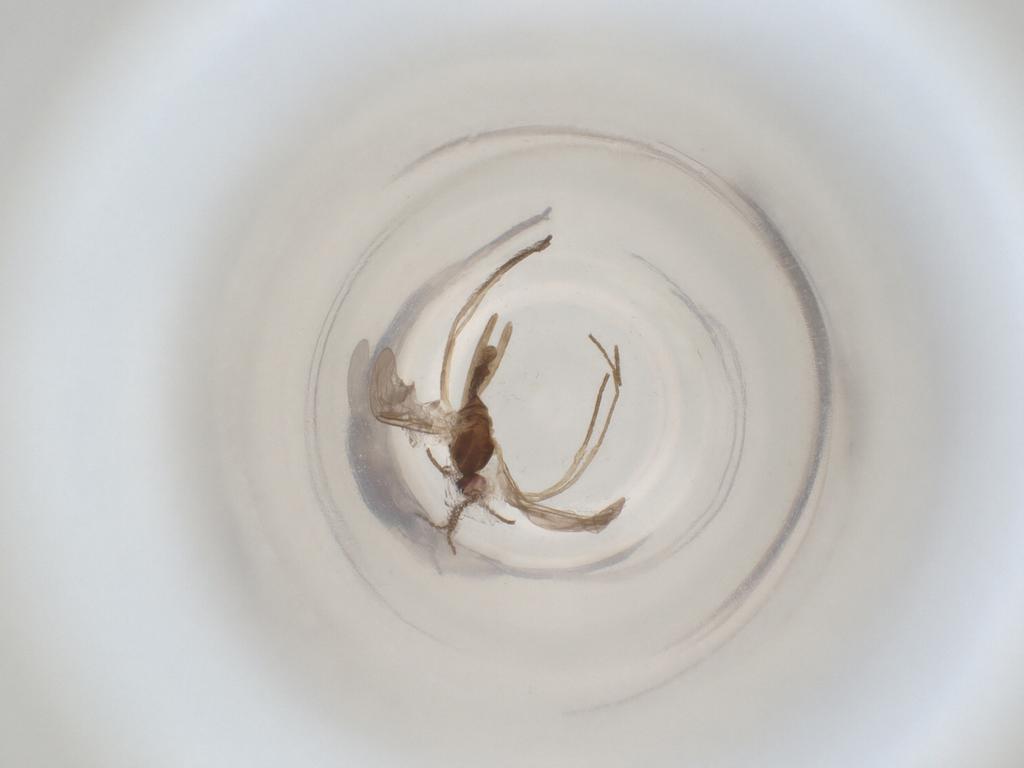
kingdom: Animalia
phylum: Arthropoda
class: Insecta
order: Diptera
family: Cecidomyiidae
